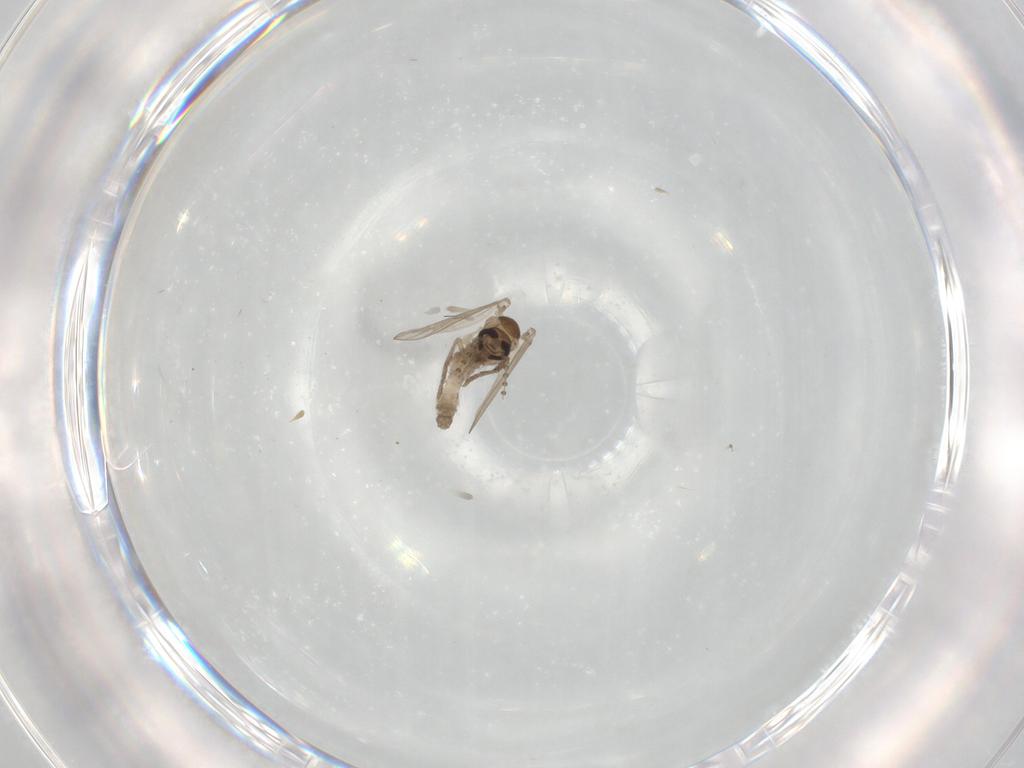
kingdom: Animalia
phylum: Arthropoda
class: Insecta
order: Diptera
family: Psychodidae
